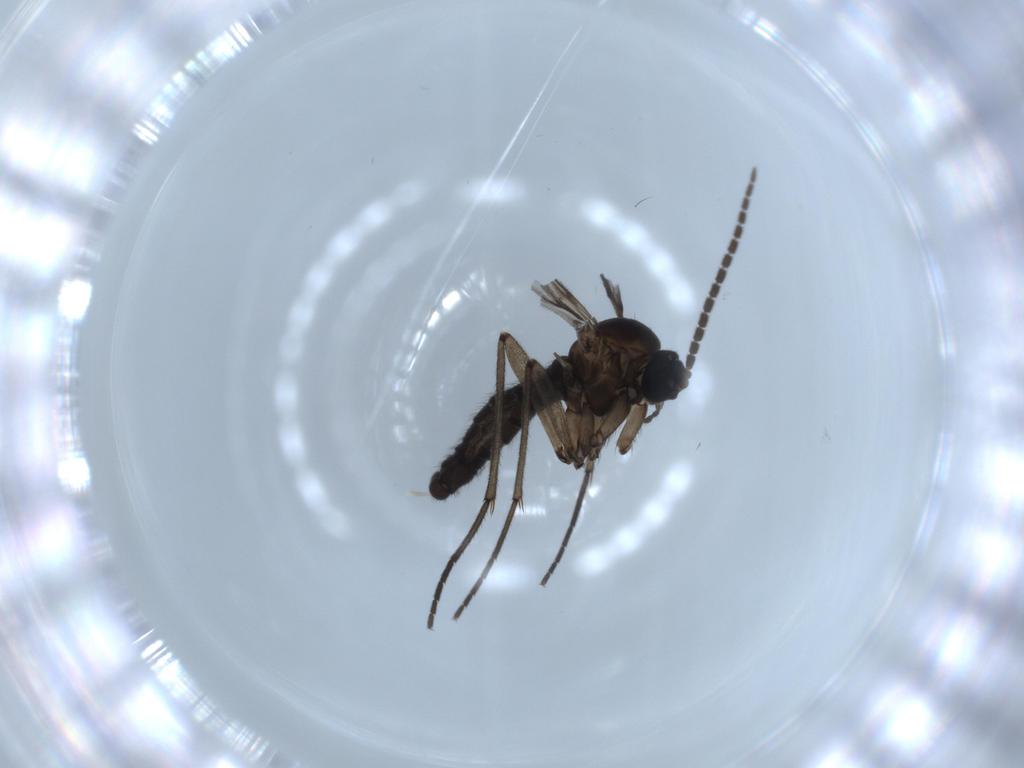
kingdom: Animalia
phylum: Arthropoda
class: Insecta
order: Diptera
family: Sciaridae
